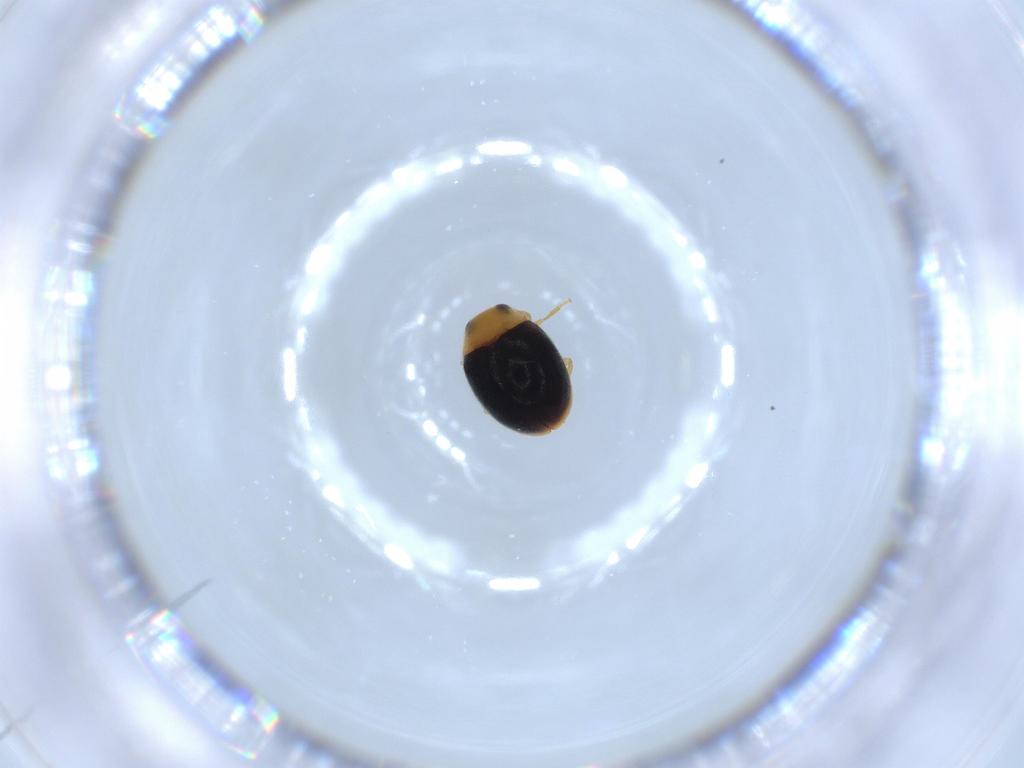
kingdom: Animalia
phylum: Arthropoda
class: Insecta
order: Coleoptera
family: Coccinellidae
